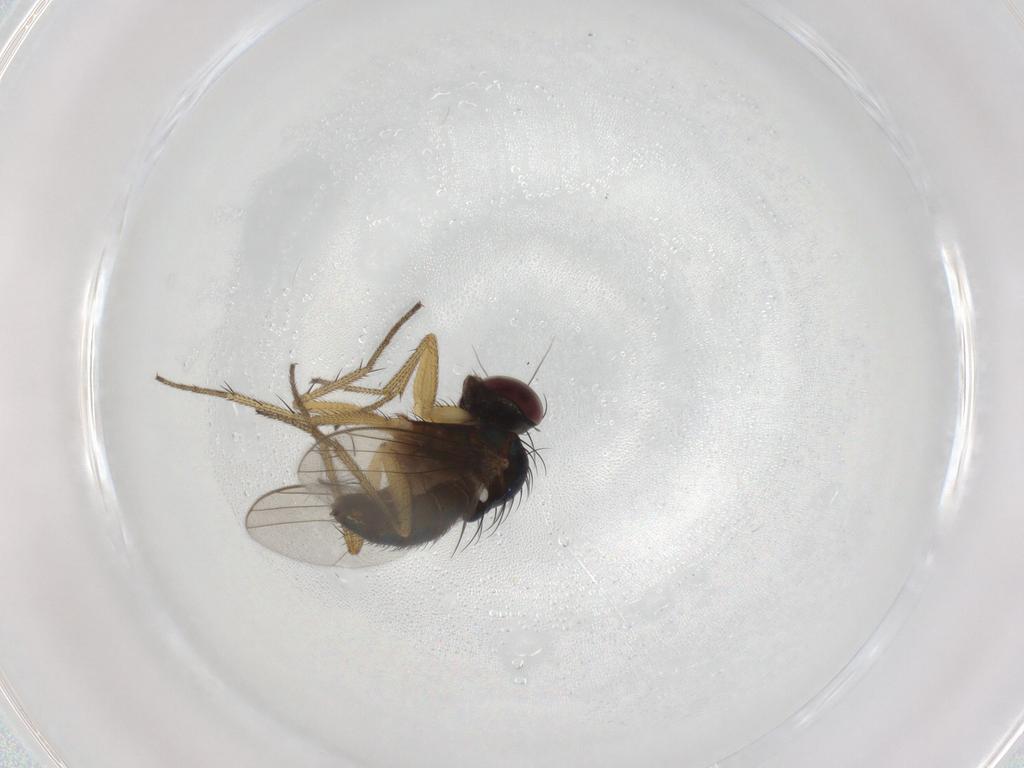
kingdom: Animalia
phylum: Arthropoda
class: Insecta
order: Diptera
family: Dolichopodidae
